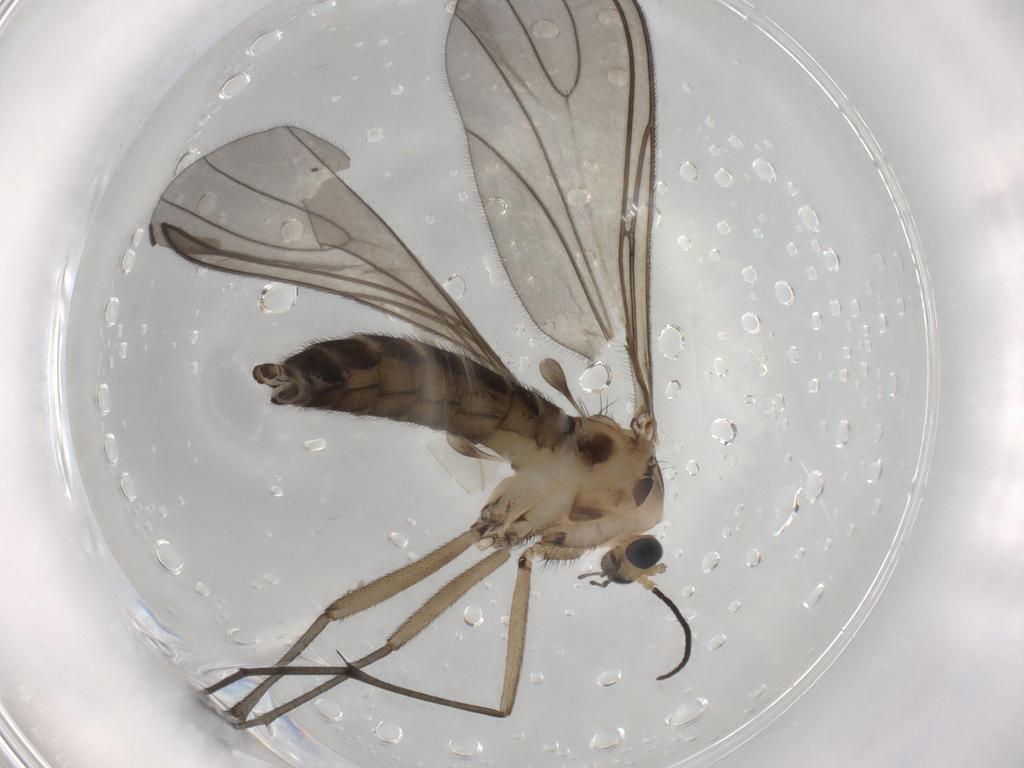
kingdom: Animalia
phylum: Arthropoda
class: Insecta
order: Diptera
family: Sciaridae
